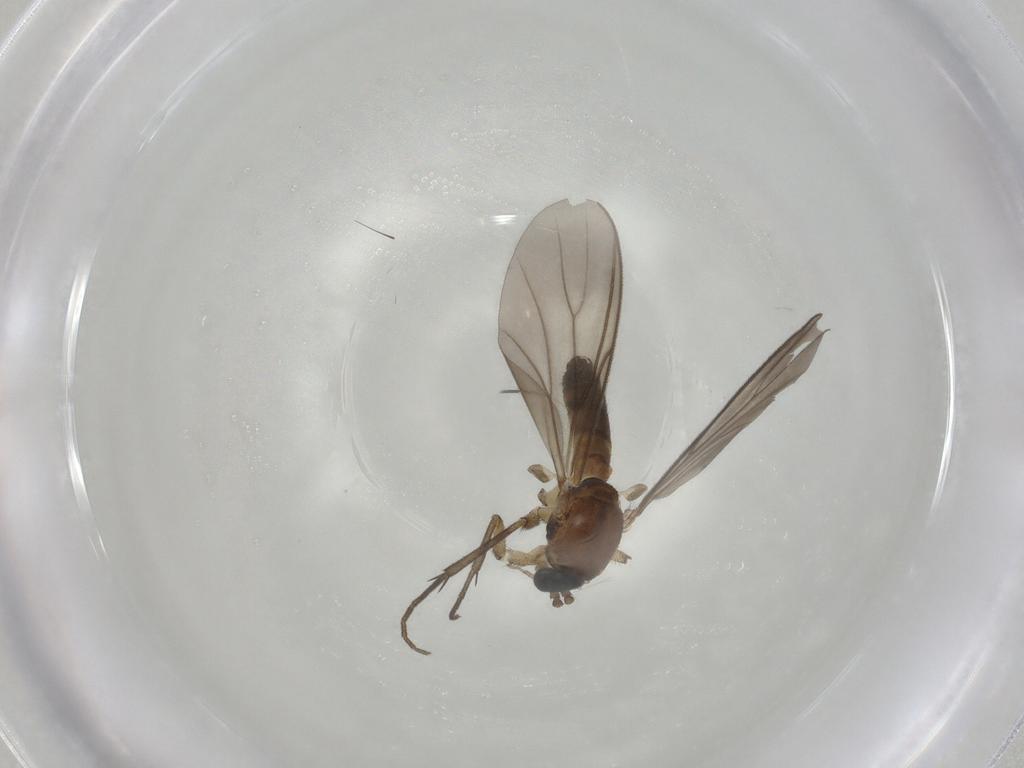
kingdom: Animalia
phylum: Arthropoda
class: Insecta
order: Diptera
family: Mycetophilidae
